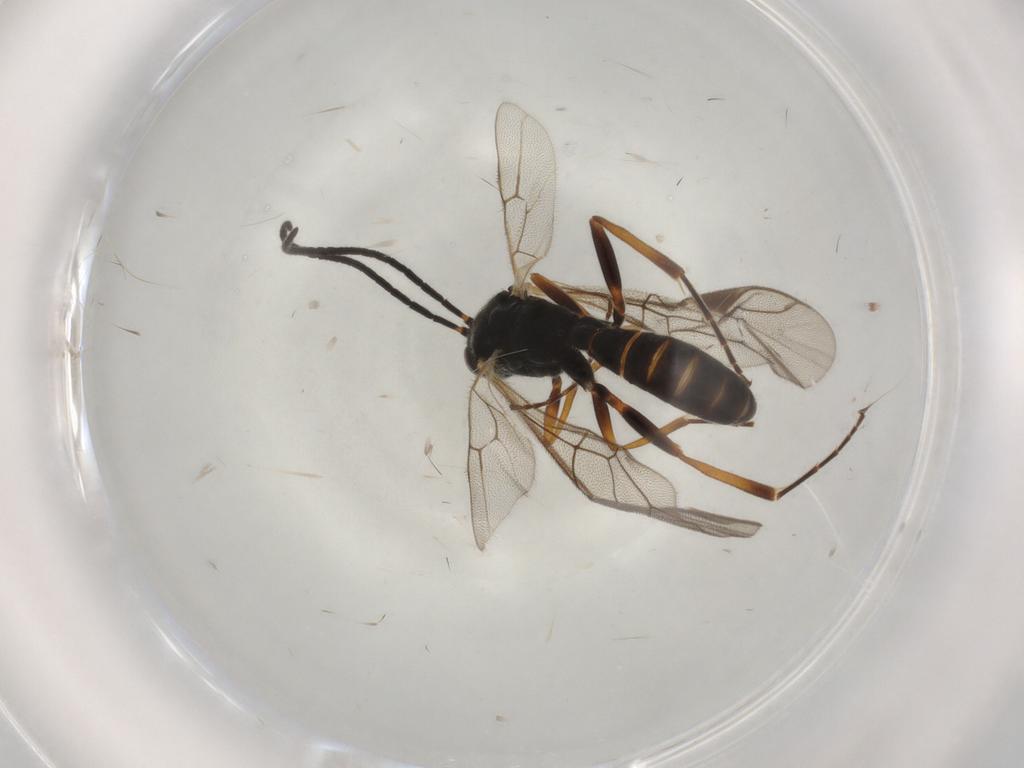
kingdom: Animalia
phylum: Arthropoda
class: Insecta
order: Hymenoptera
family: Ichneumonidae
